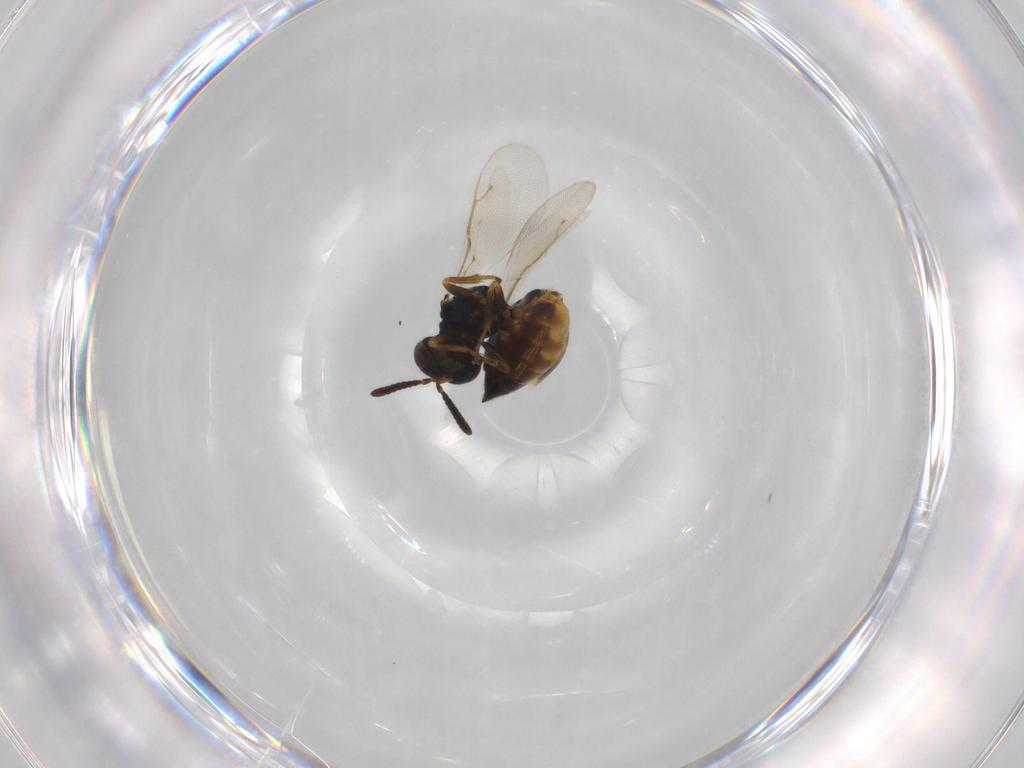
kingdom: Animalia
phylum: Arthropoda
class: Insecta
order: Hymenoptera
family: Pteromalidae
